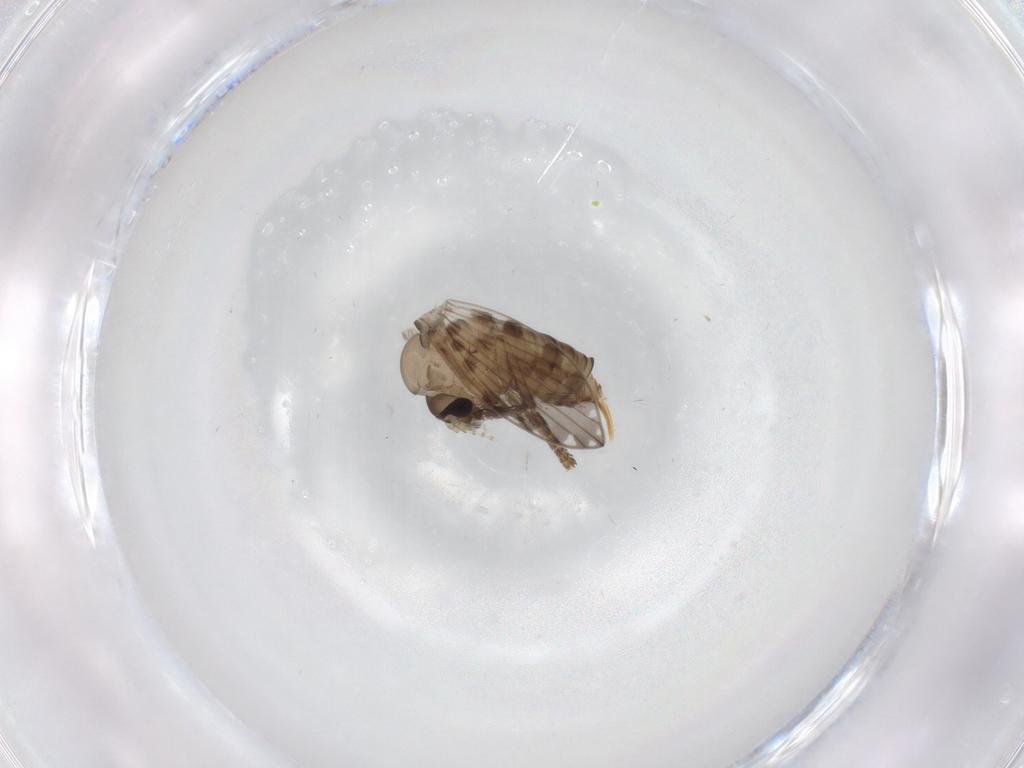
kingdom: Animalia
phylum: Arthropoda
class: Insecta
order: Diptera
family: Psychodidae
